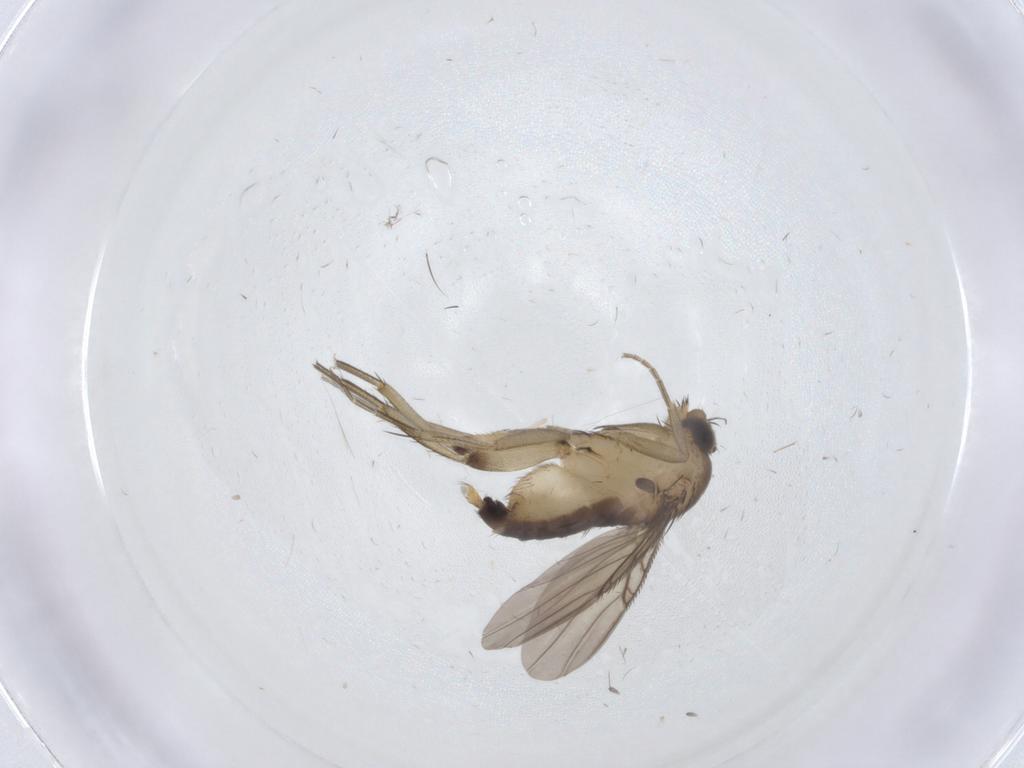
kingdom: Animalia
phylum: Arthropoda
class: Insecta
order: Diptera
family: Phoridae
